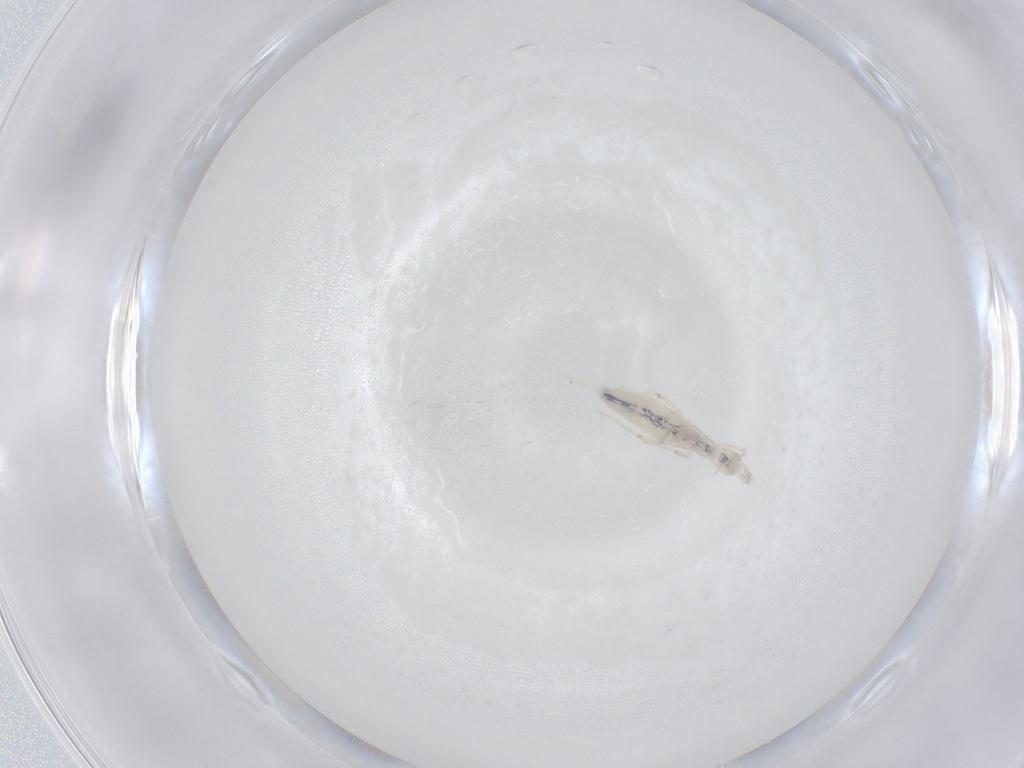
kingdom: Animalia
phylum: Arthropoda
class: Collembola
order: Entomobryomorpha
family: Entomobryidae
